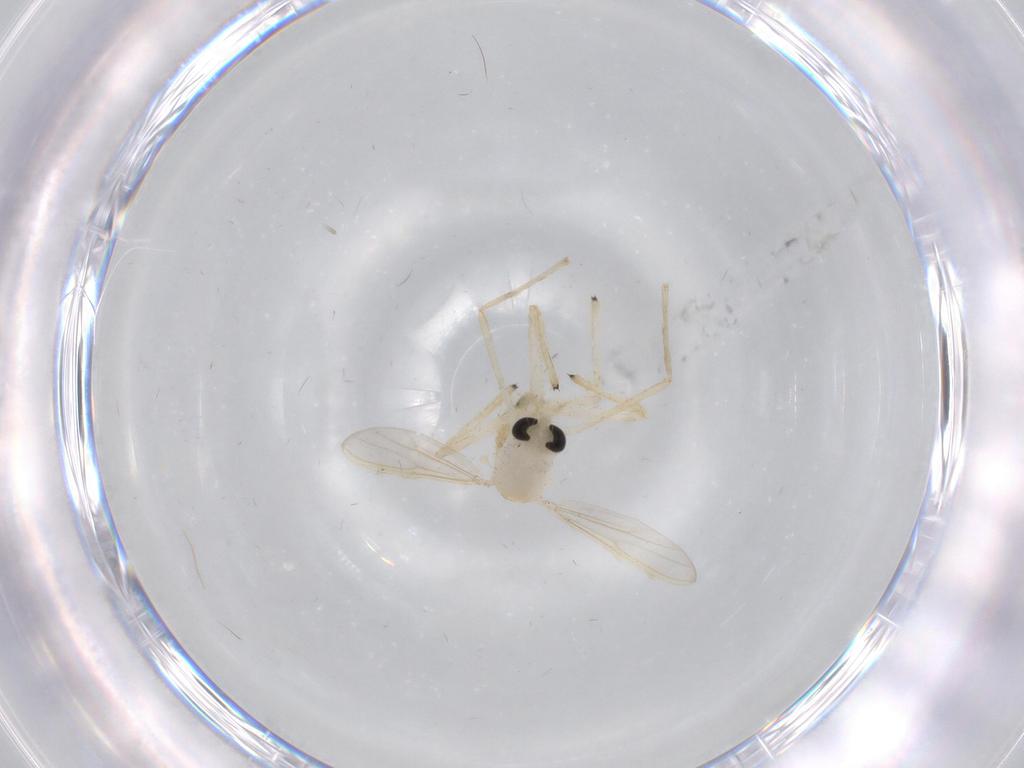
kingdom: Animalia
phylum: Arthropoda
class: Insecta
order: Diptera
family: Chironomidae
